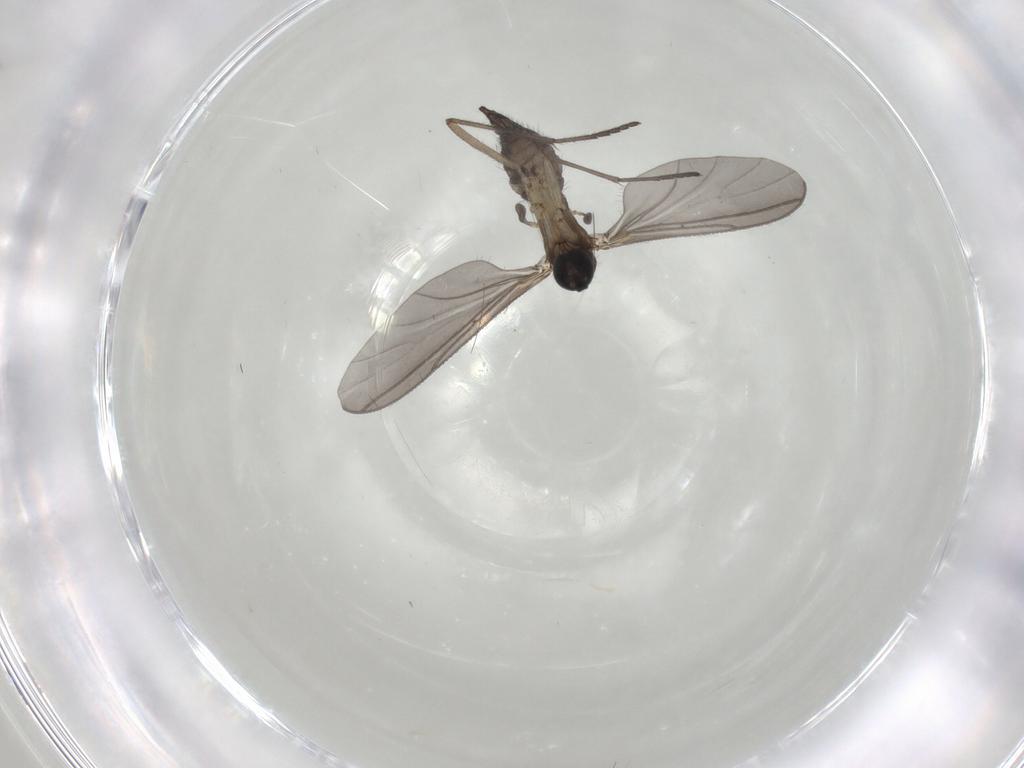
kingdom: Animalia
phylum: Arthropoda
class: Insecta
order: Diptera
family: Sciaridae
